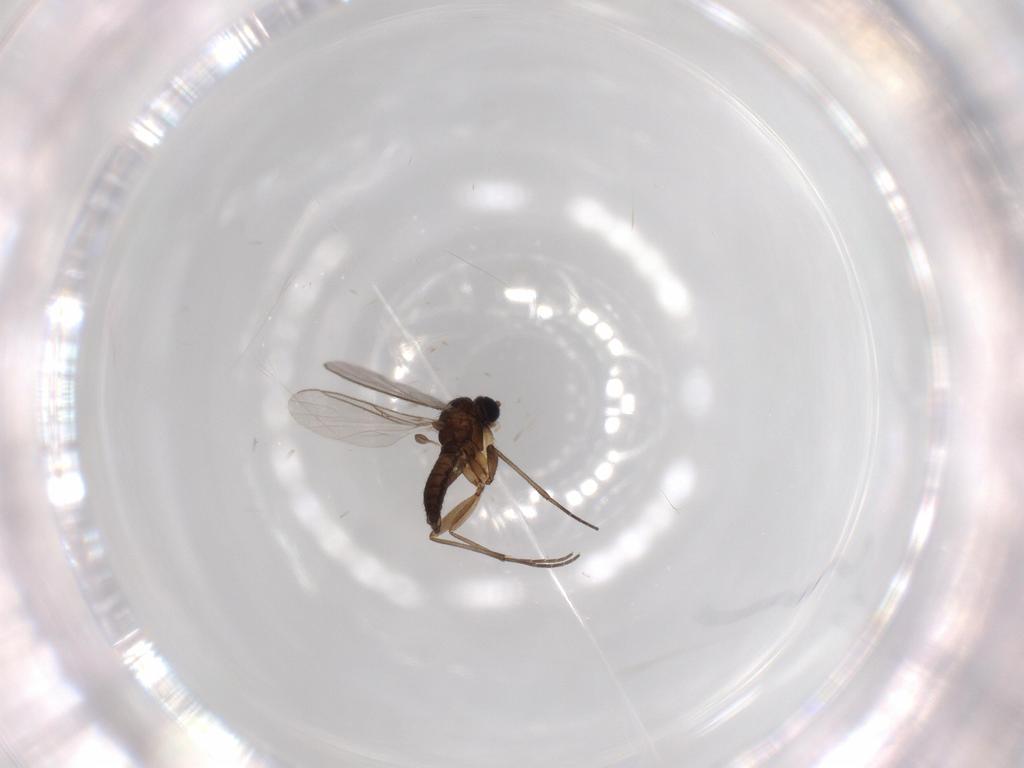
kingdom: Animalia
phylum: Arthropoda
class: Insecta
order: Diptera
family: Sciaridae
